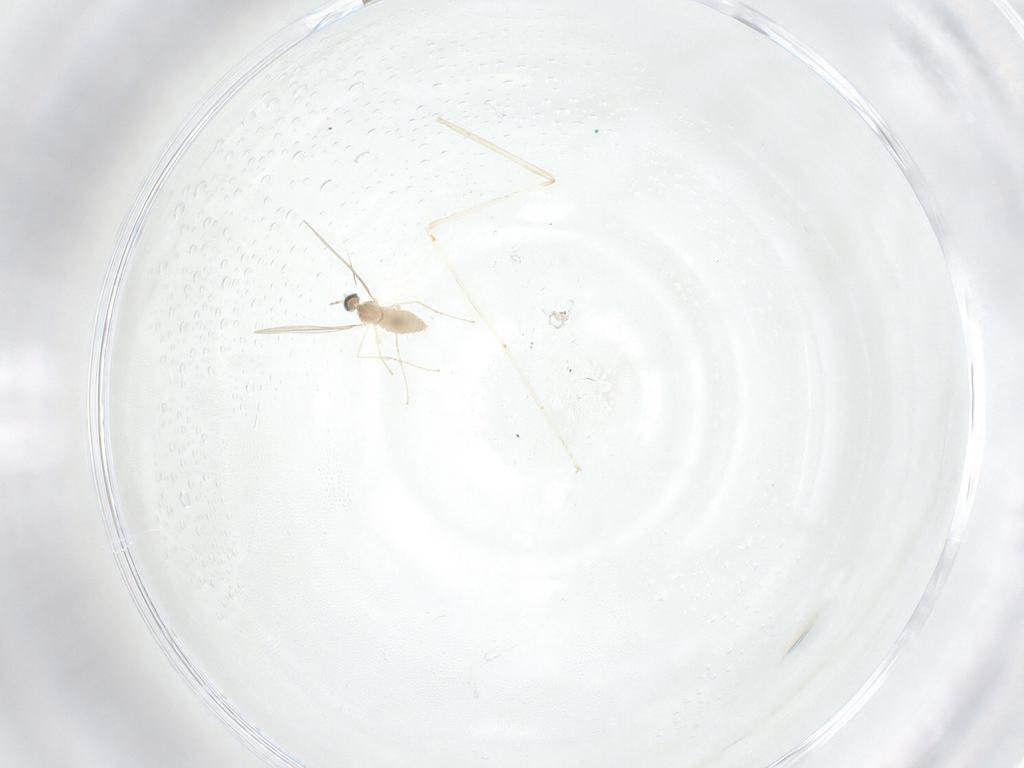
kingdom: Animalia
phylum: Arthropoda
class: Insecta
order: Diptera
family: Cecidomyiidae
